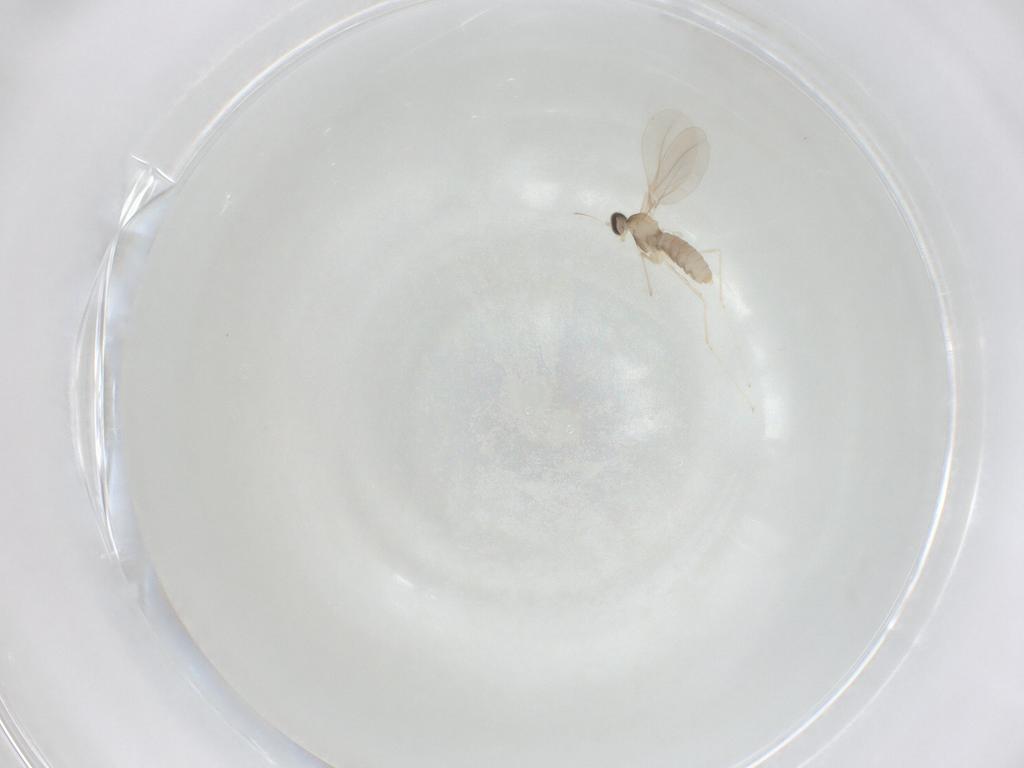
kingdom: Animalia
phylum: Arthropoda
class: Insecta
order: Diptera
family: Cecidomyiidae
